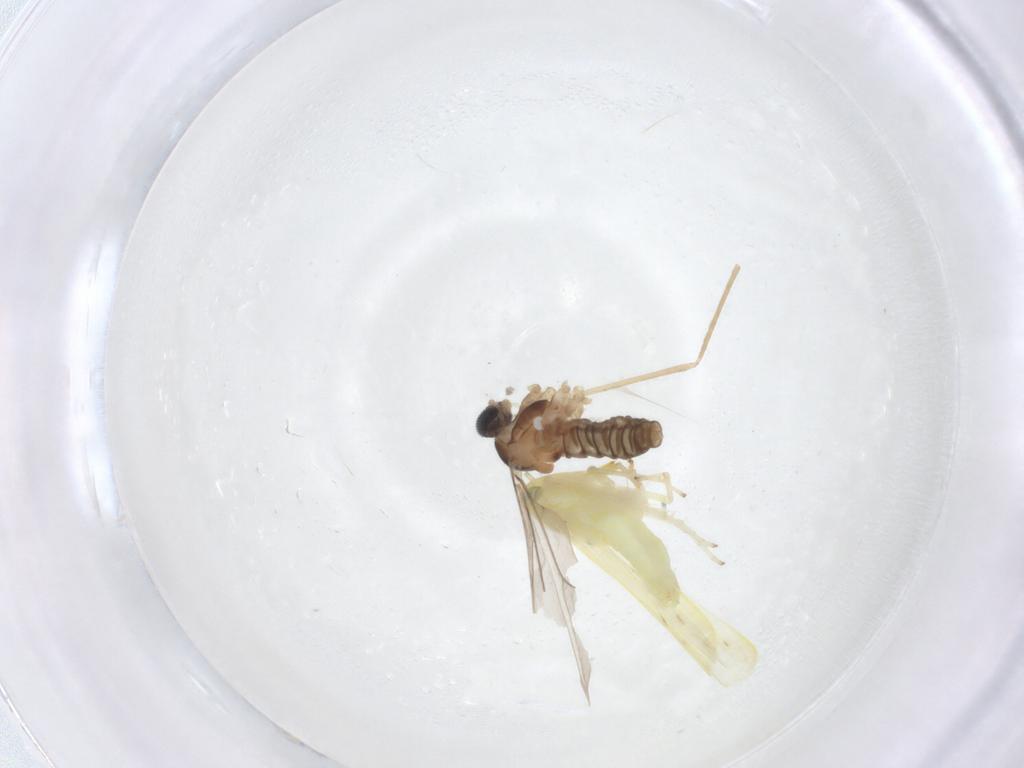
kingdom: Animalia
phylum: Arthropoda
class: Insecta
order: Diptera
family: Cecidomyiidae
